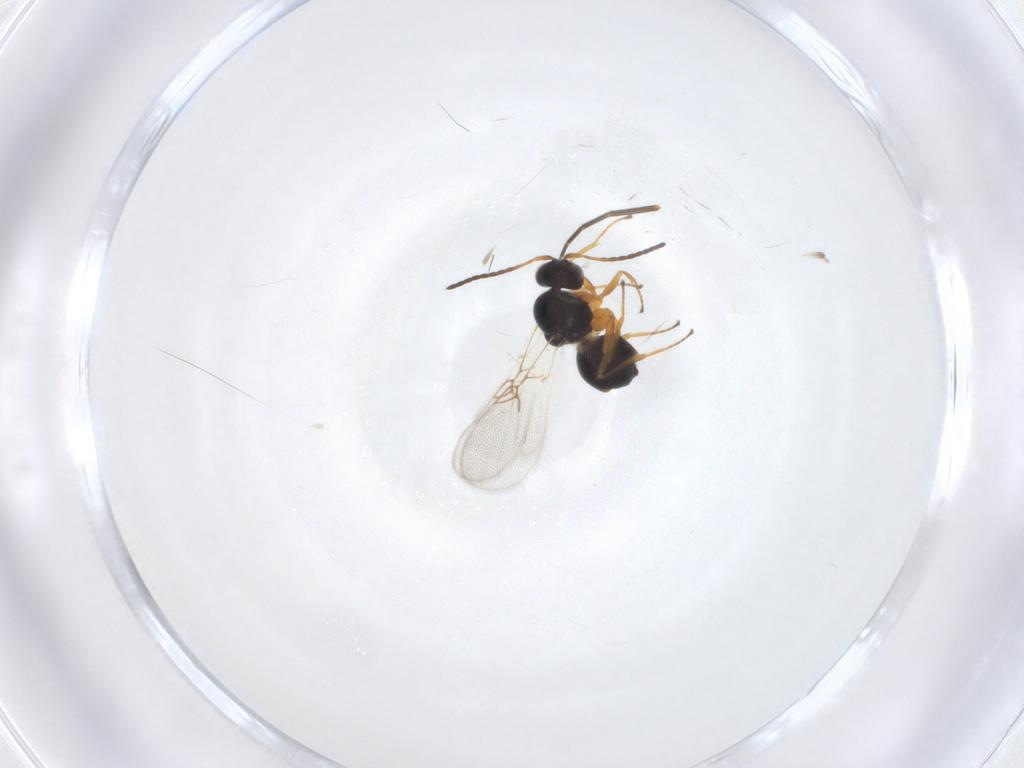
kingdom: Animalia
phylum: Arthropoda
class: Insecta
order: Hymenoptera
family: Figitidae
